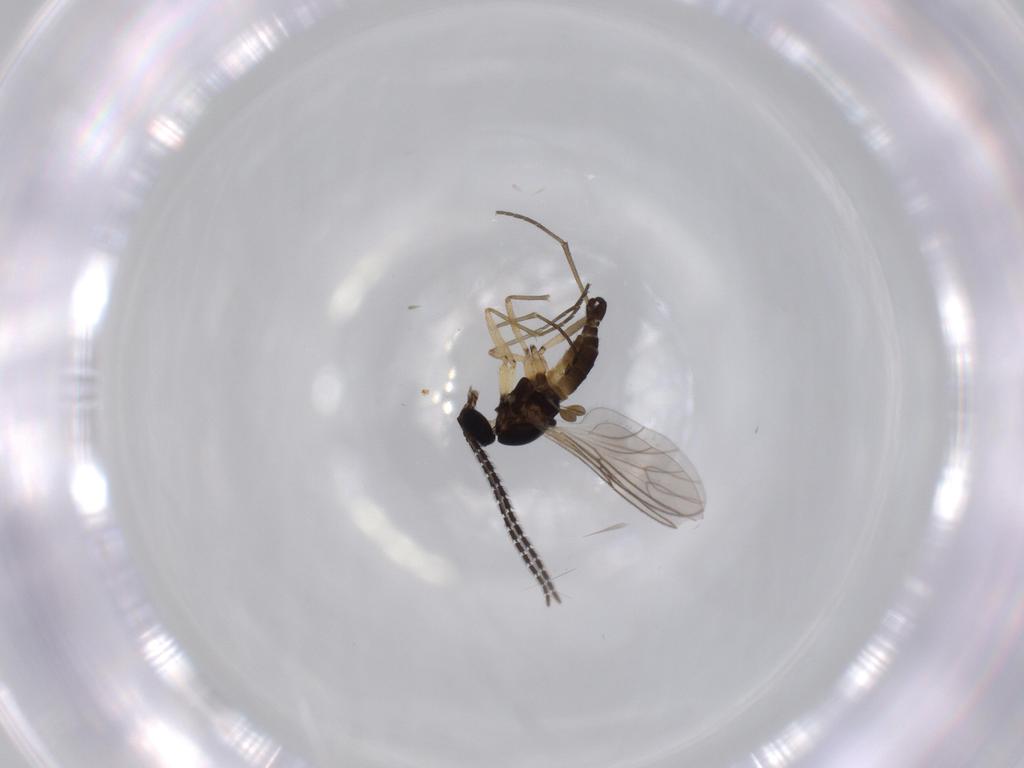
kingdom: Animalia
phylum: Arthropoda
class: Insecta
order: Diptera
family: Sciaridae
